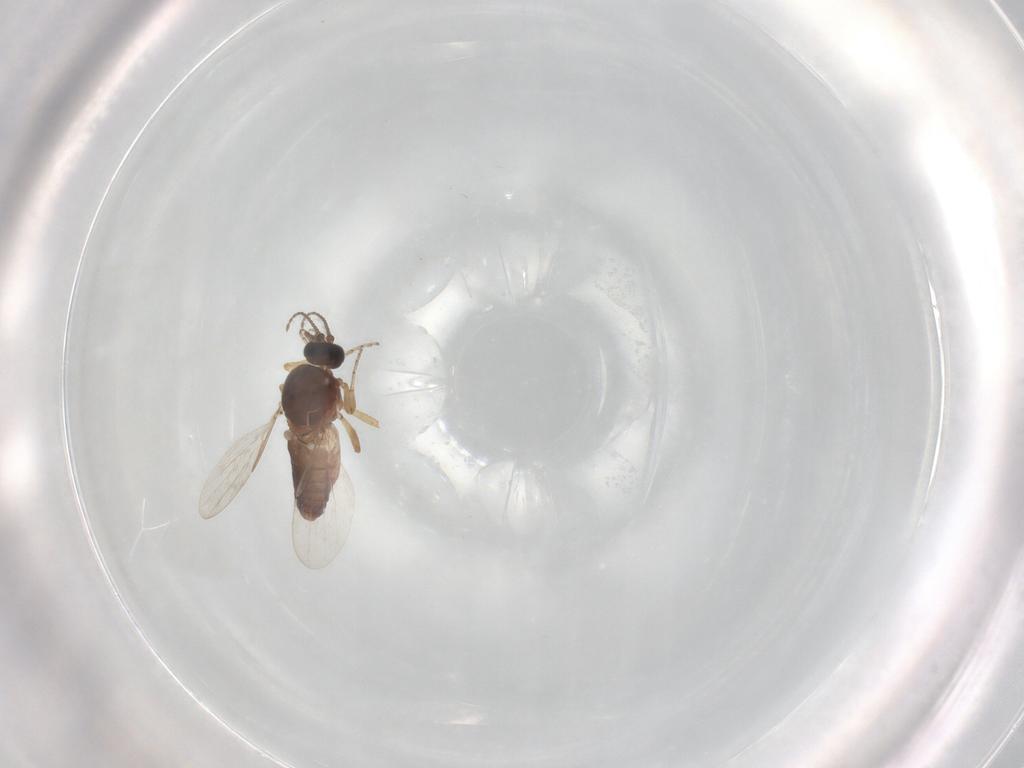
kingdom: Animalia
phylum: Arthropoda
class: Insecta
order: Diptera
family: Ceratopogonidae
